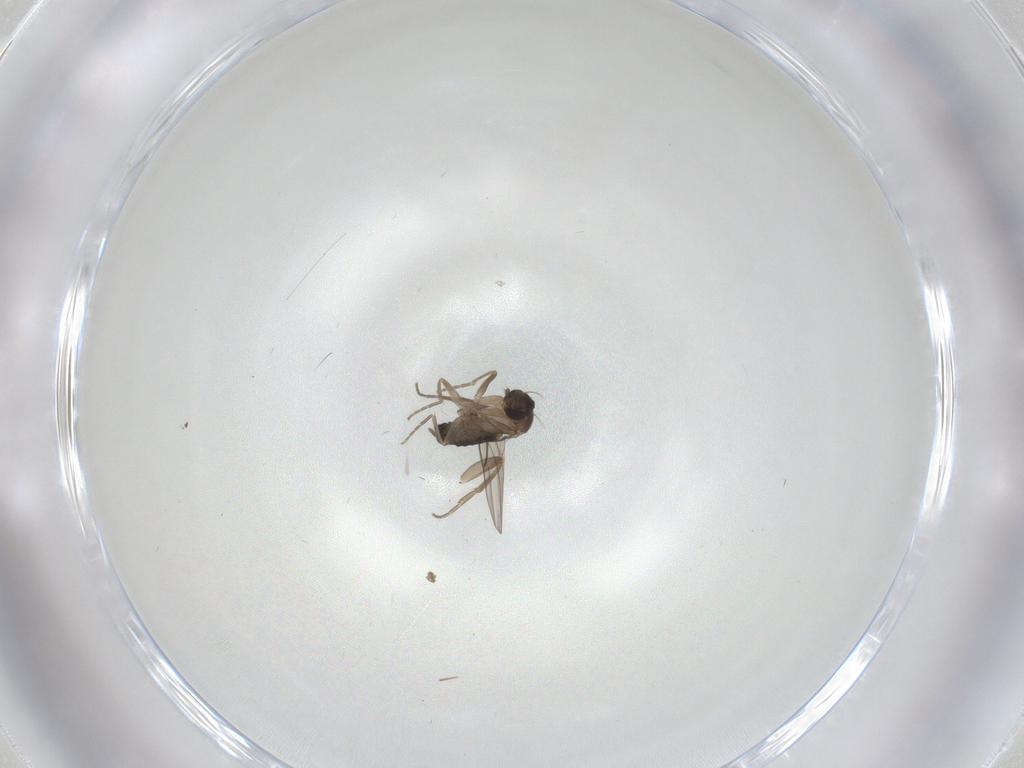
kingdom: Animalia
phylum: Arthropoda
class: Insecta
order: Diptera
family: Phoridae
